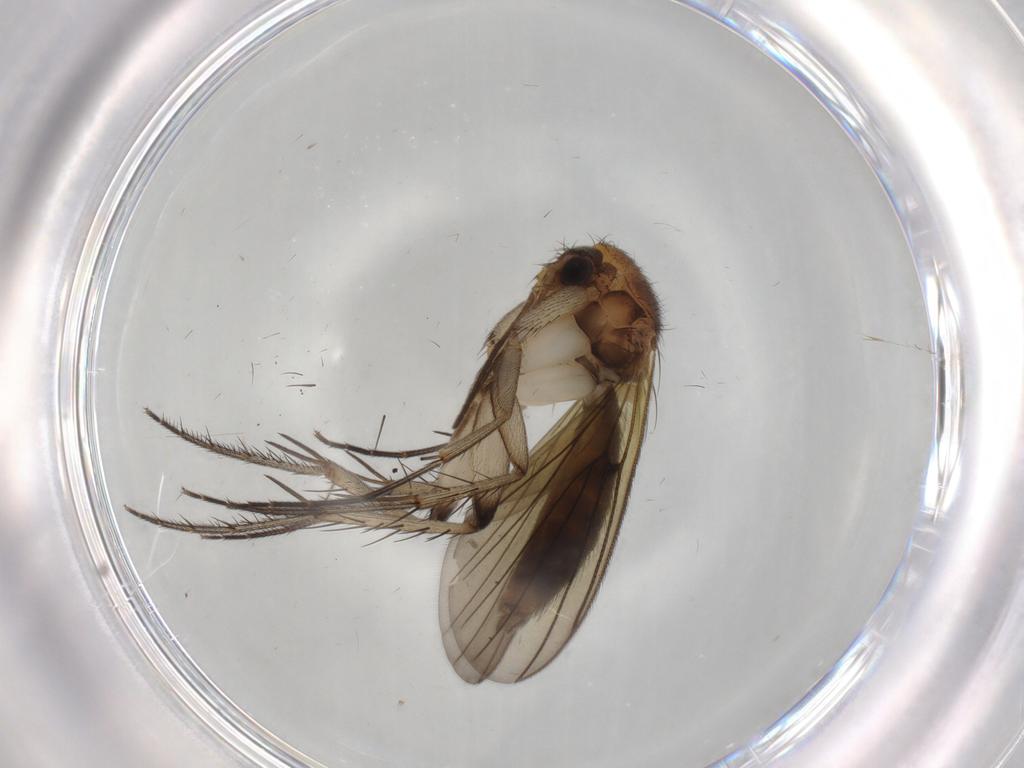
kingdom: Animalia
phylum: Arthropoda
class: Insecta
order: Diptera
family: Mycetophilidae
